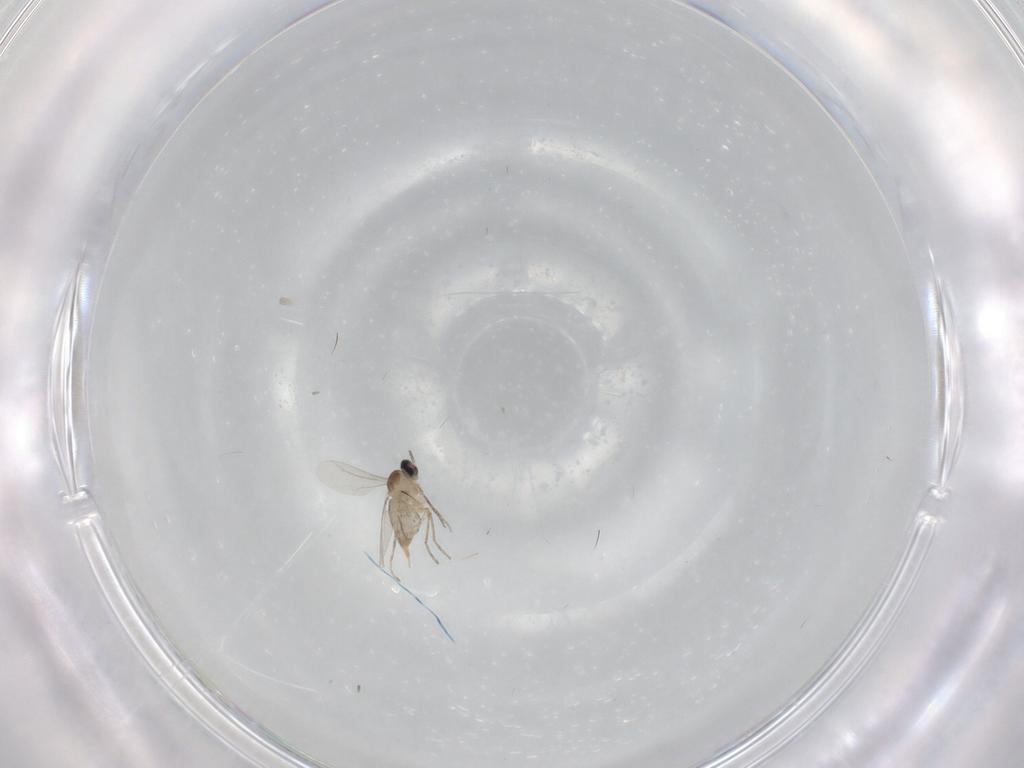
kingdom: Animalia
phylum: Arthropoda
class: Insecta
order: Diptera
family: Cecidomyiidae
